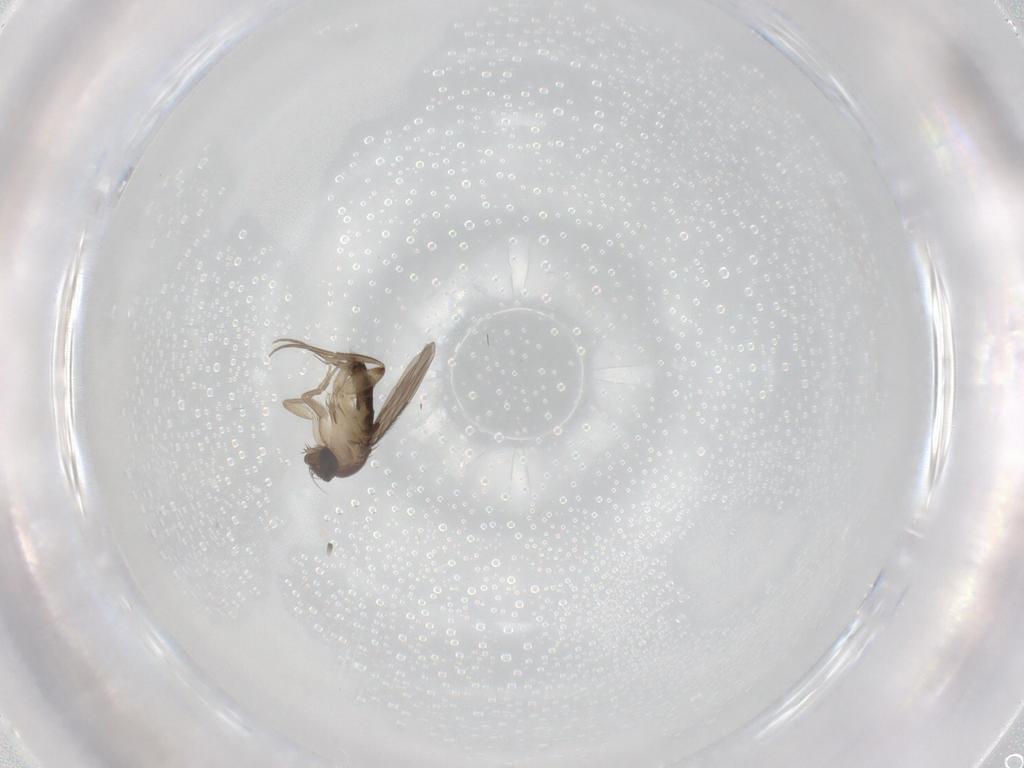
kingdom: Animalia
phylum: Arthropoda
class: Insecta
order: Diptera
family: Phoridae
